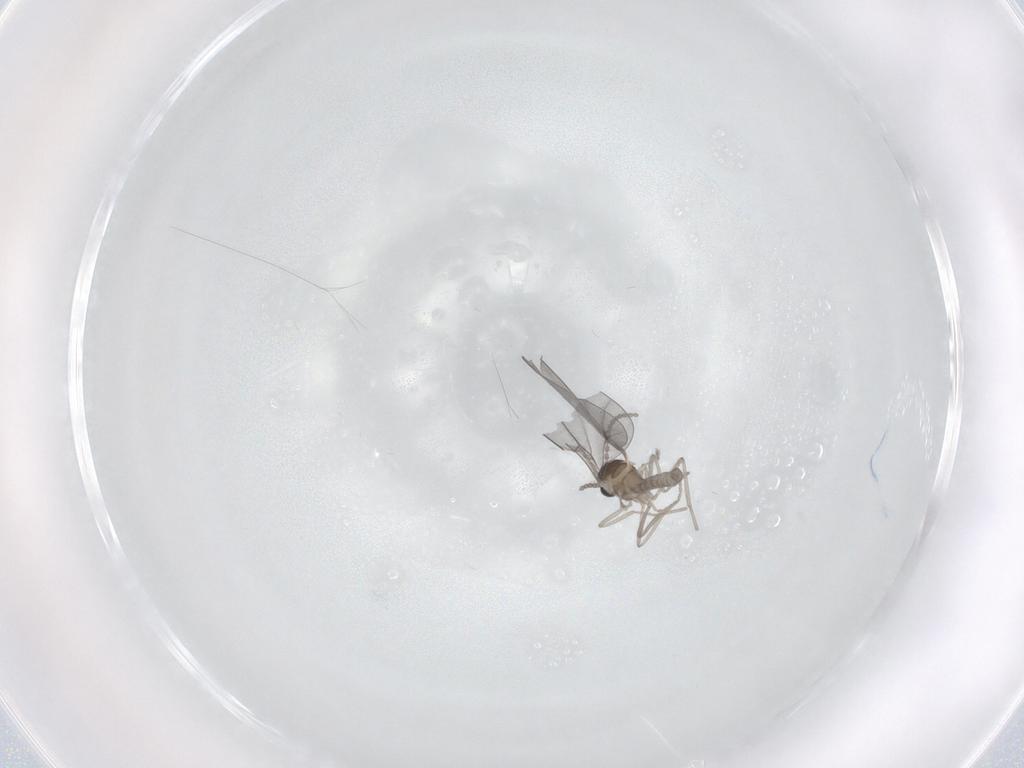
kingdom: Animalia
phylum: Arthropoda
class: Insecta
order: Diptera
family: Cecidomyiidae
